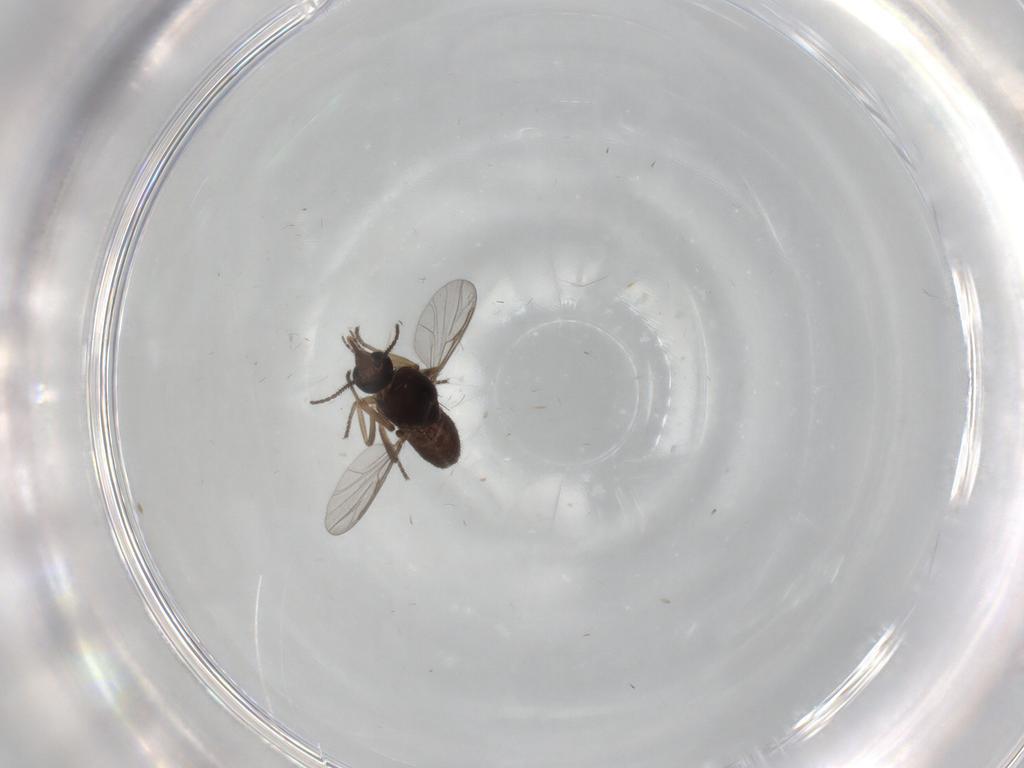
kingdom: Animalia
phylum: Arthropoda
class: Insecta
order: Diptera
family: Ceratopogonidae
